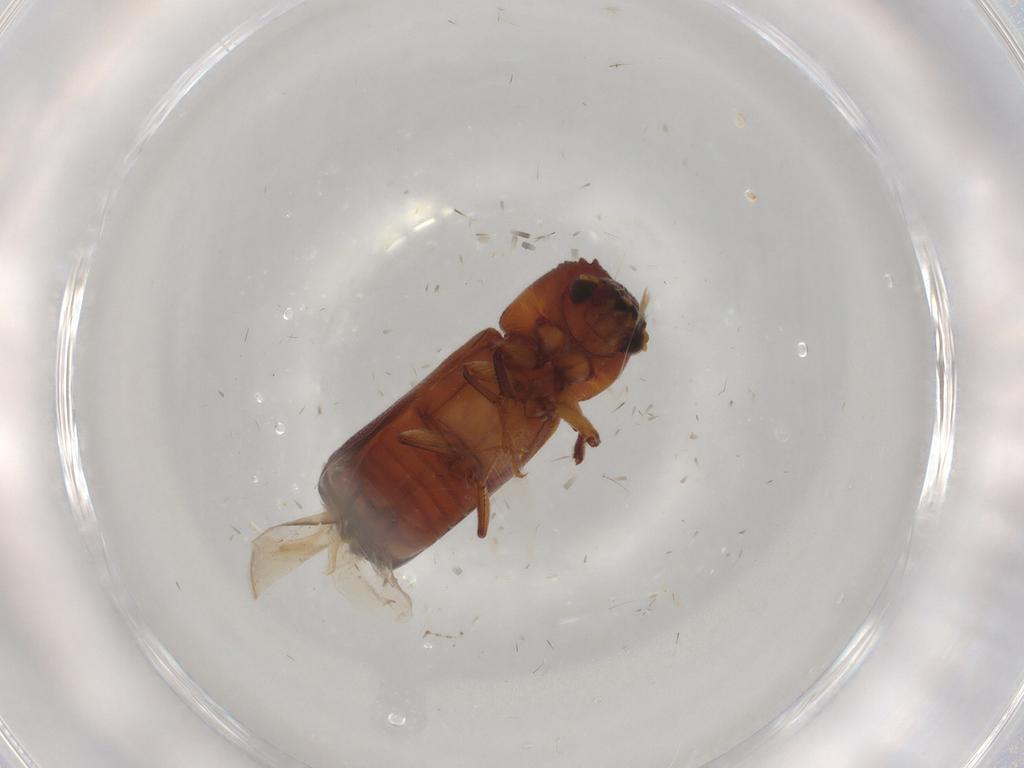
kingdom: Animalia
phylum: Arthropoda
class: Insecta
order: Coleoptera
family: Bostrichidae
